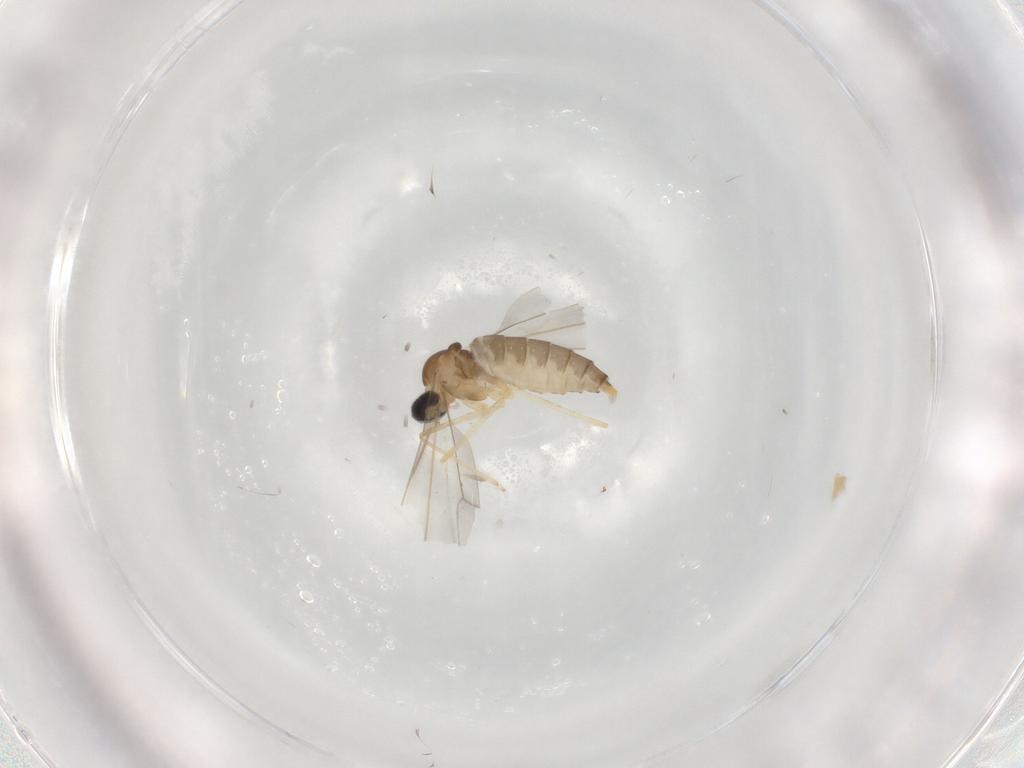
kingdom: Animalia
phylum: Arthropoda
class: Insecta
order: Diptera
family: Cecidomyiidae
